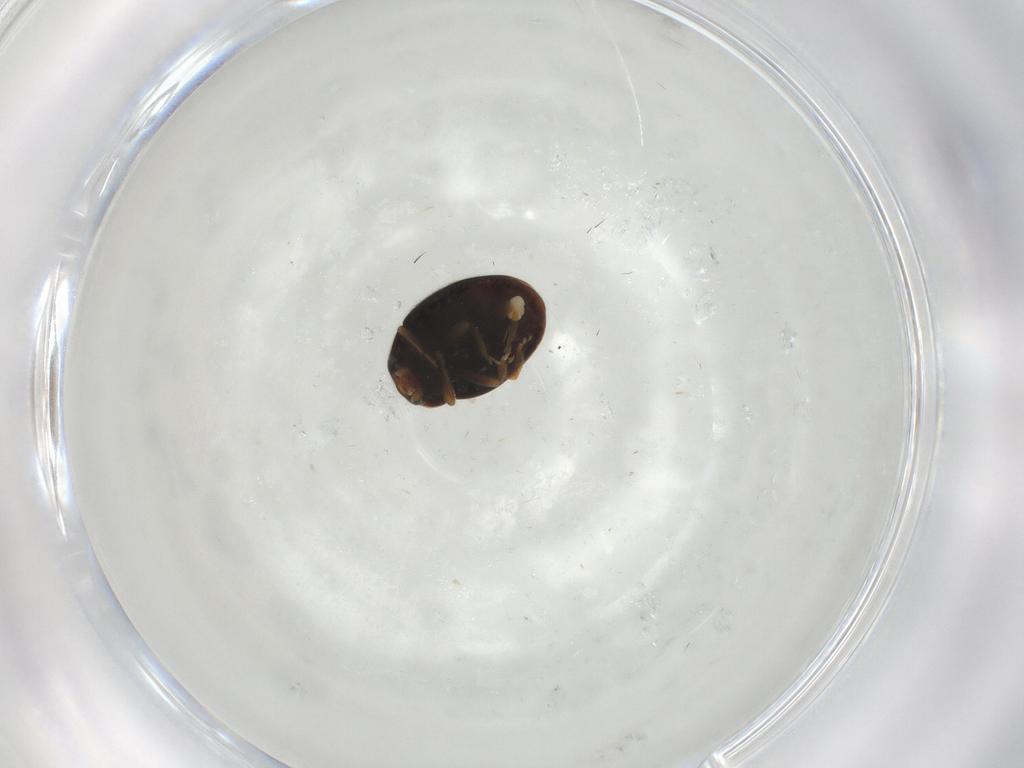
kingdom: Animalia
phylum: Arthropoda
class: Insecta
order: Coleoptera
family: Coccinellidae
